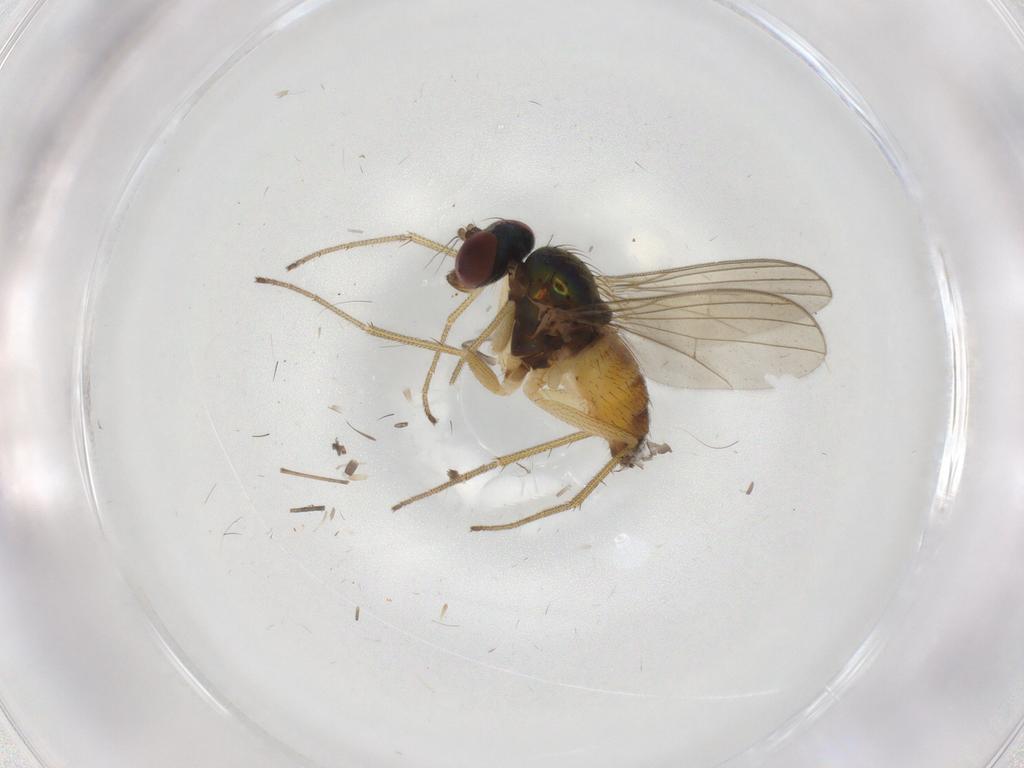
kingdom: Animalia
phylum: Arthropoda
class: Insecta
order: Diptera
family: Dolichopodidae
